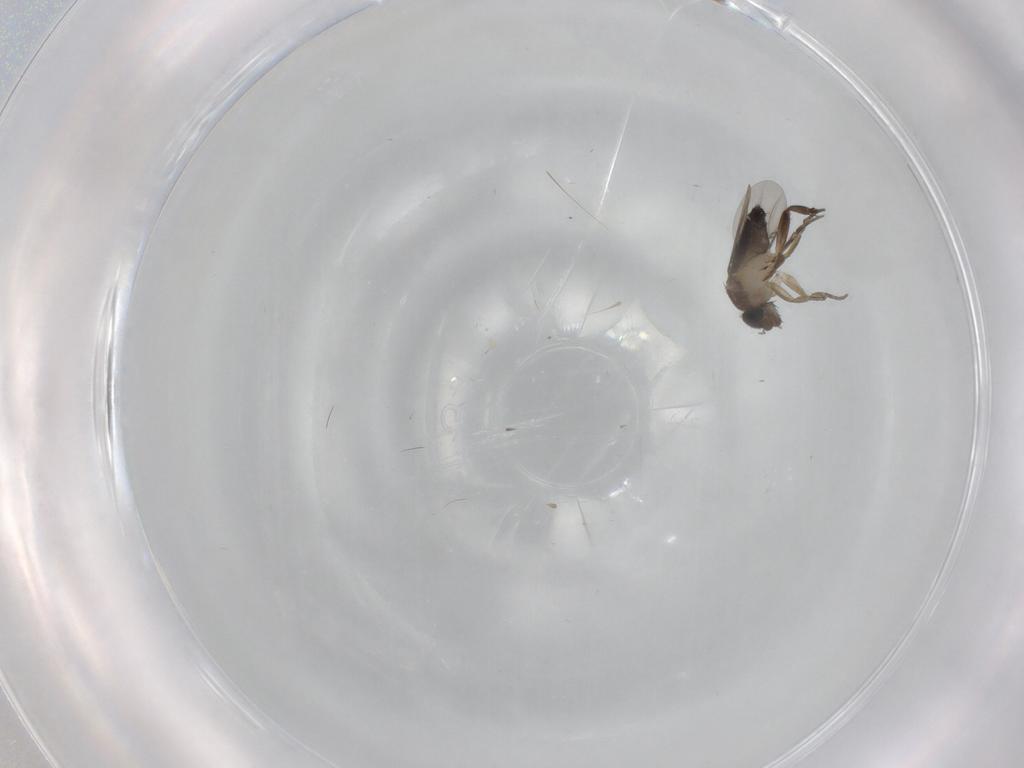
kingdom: Animalia
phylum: Arthropoda
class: Insecta
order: Diptera
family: Phoridae
